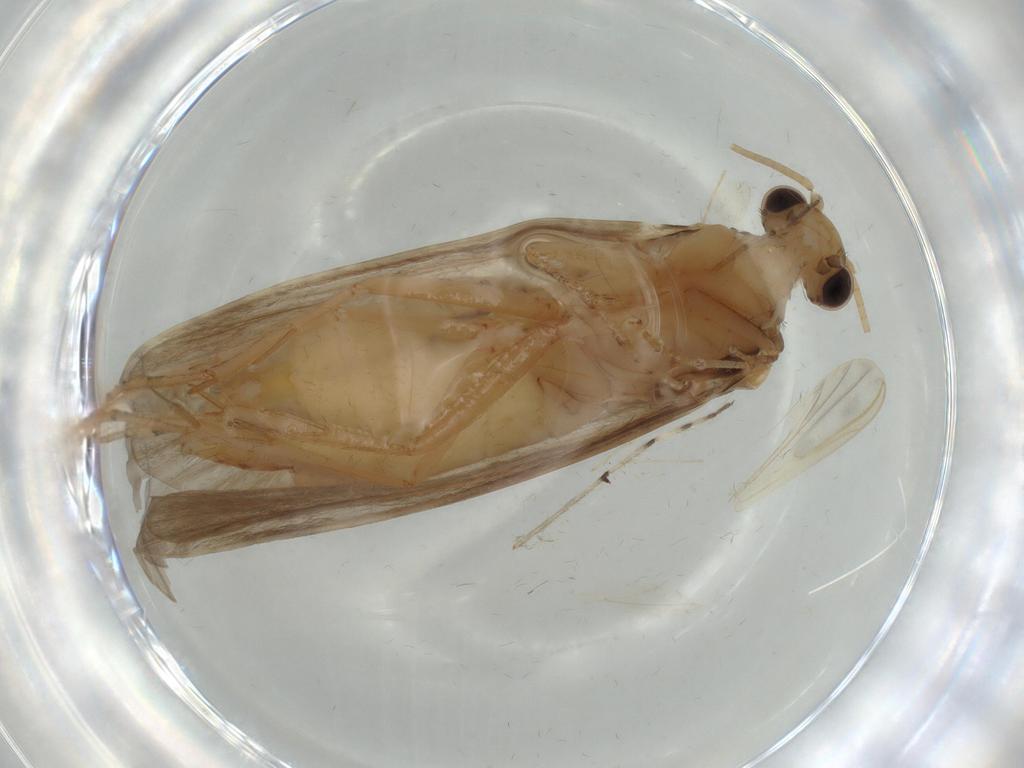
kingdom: Animalia
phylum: Arthropoda
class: Insecta
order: Trichoptera
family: Ecnomidae
